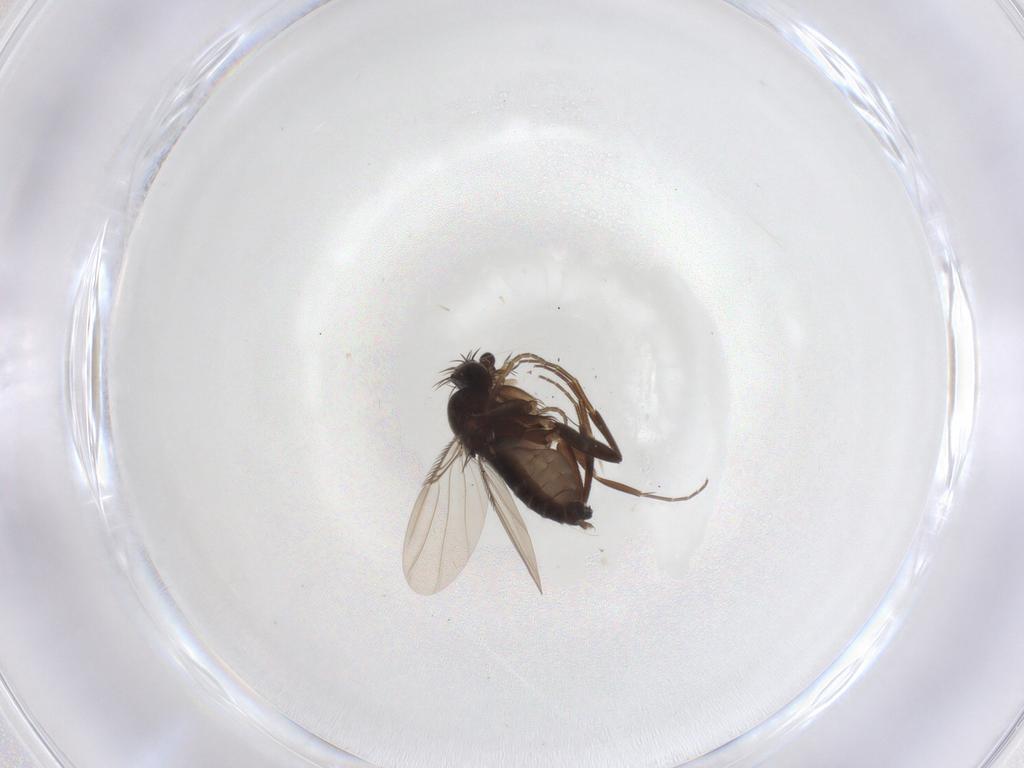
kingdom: Animalia
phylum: Arthropoda
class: Insecta
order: Diptera
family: Phoridae
